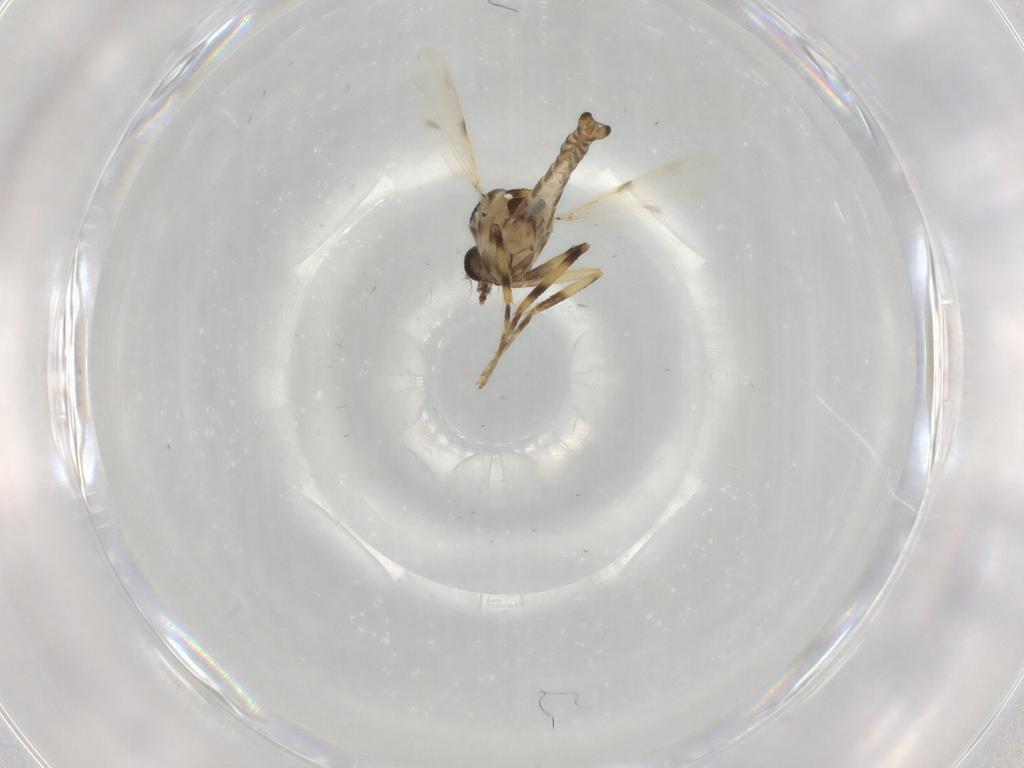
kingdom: Animalia
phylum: Arthropoda
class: Insecta
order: Diptera
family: Ceratopogonidae
